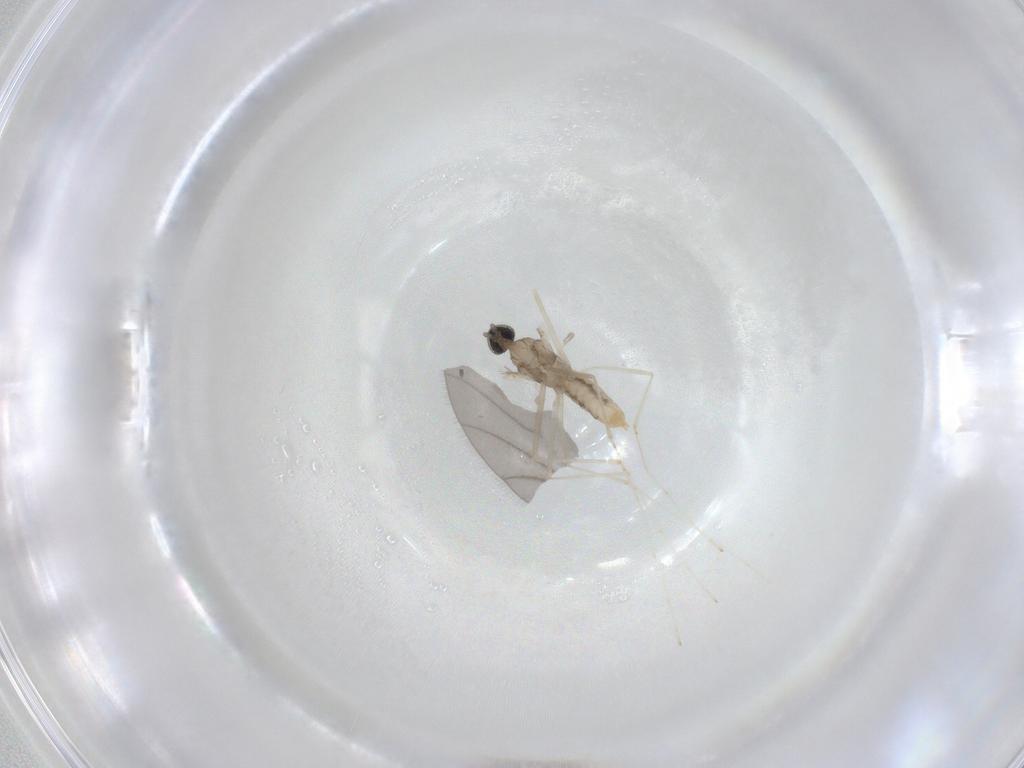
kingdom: Animalia
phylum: Arthropoda
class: Insecta
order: Diptera
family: Cecidomyiidae
